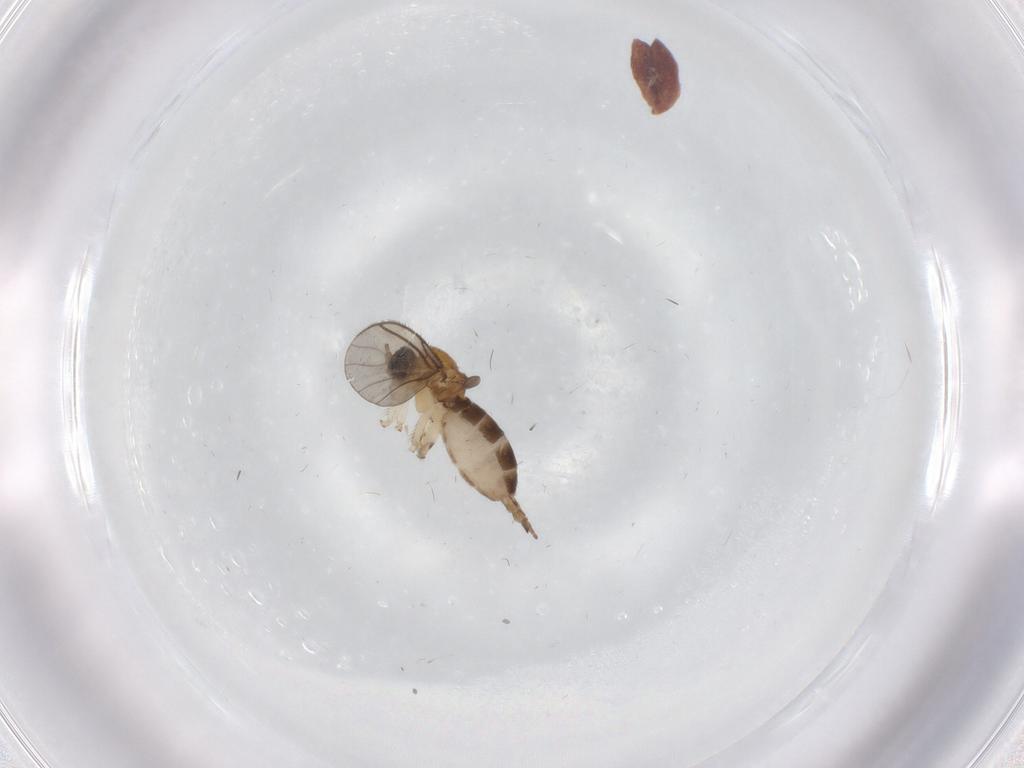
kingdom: Animalia
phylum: Arthropoda
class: Insecta
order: Diptera
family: Sciaridae
